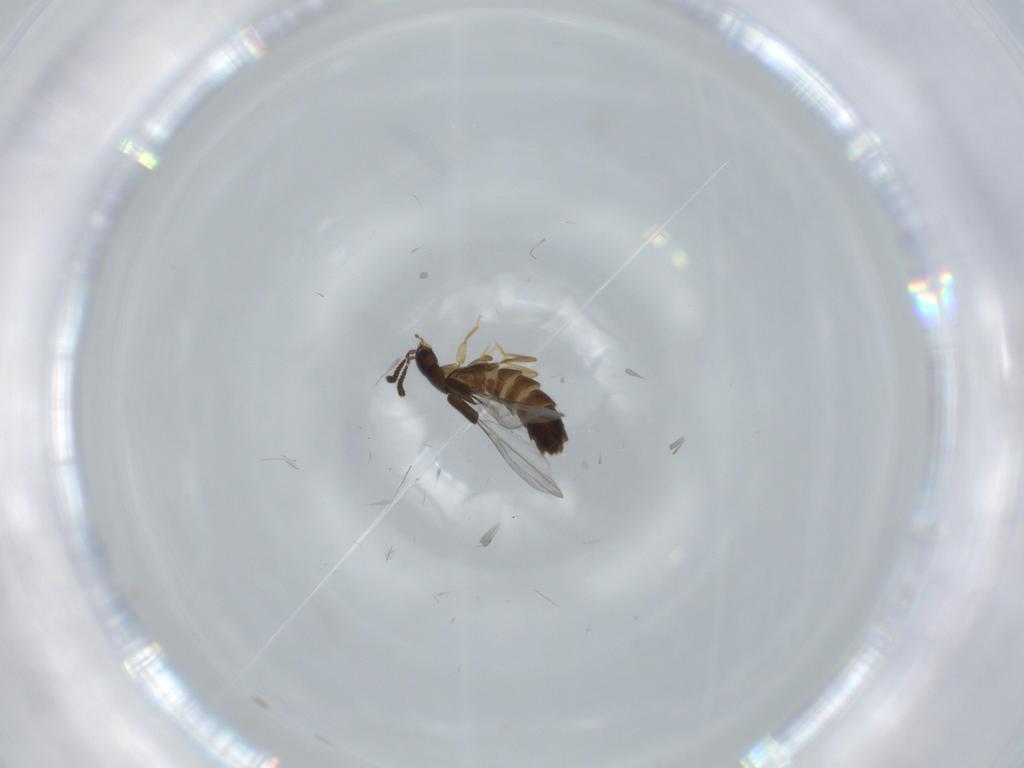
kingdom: Animalia
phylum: Arthropoda
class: Insecta
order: Coleoptera
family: Staphylinidae
